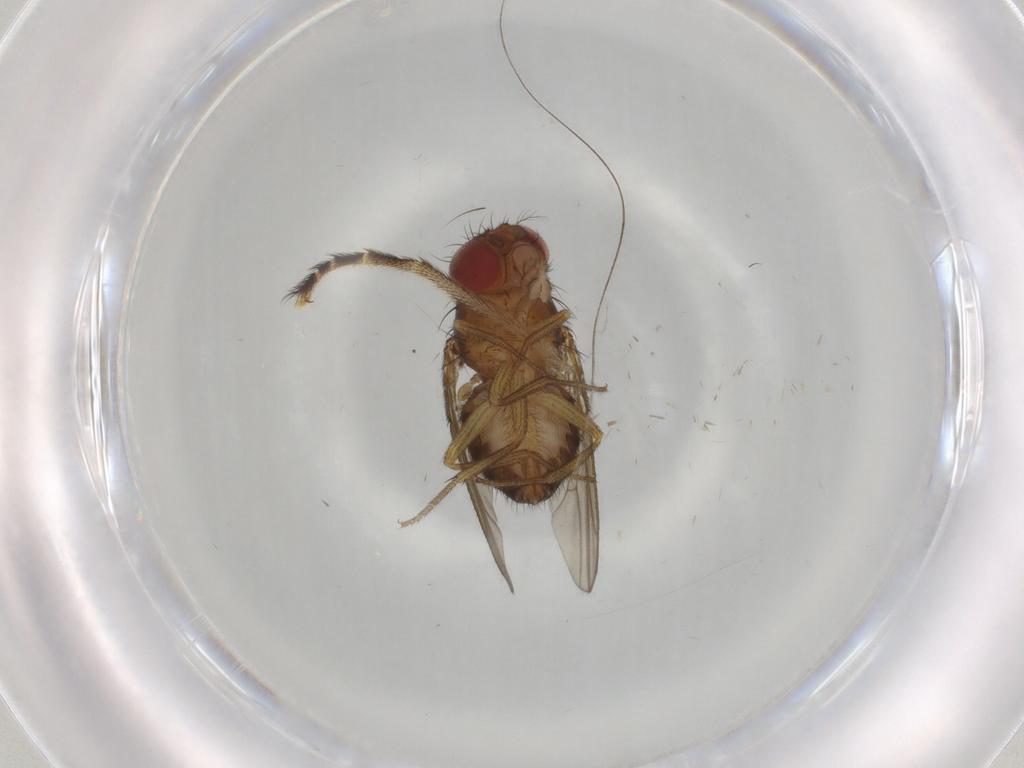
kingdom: Animalia
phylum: Arthropoda
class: Insecta
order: Diptera
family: Drosophilidae
